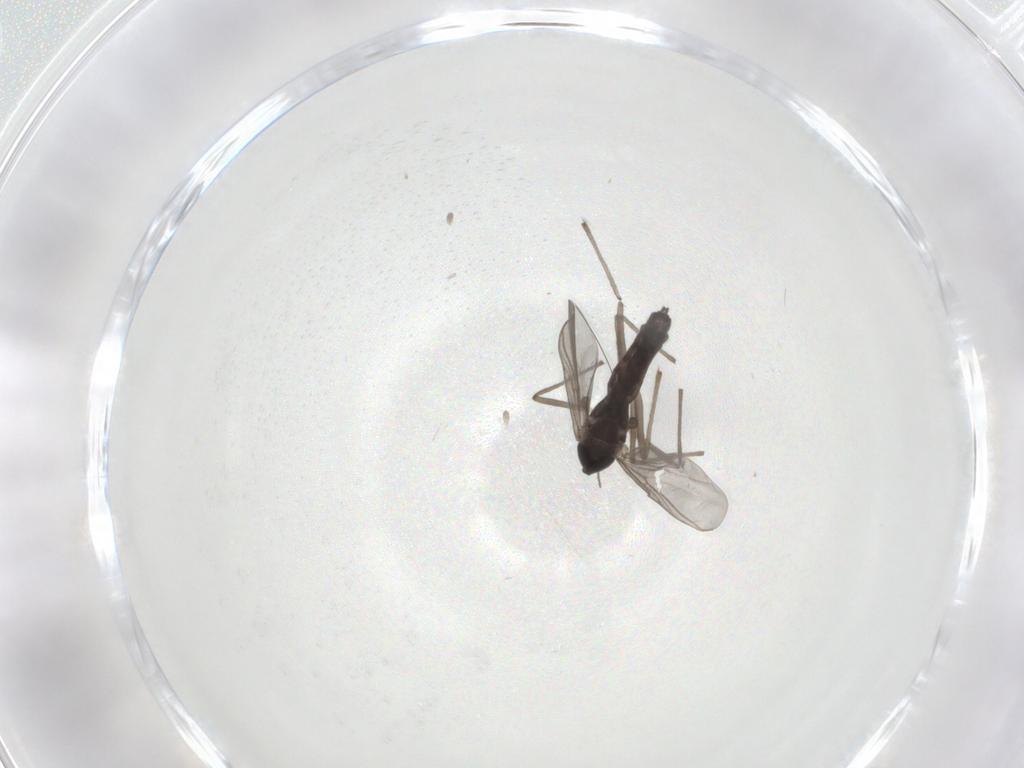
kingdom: Animalia
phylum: Arthropoda
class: Insecta
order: Diptera
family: Chironomidae
